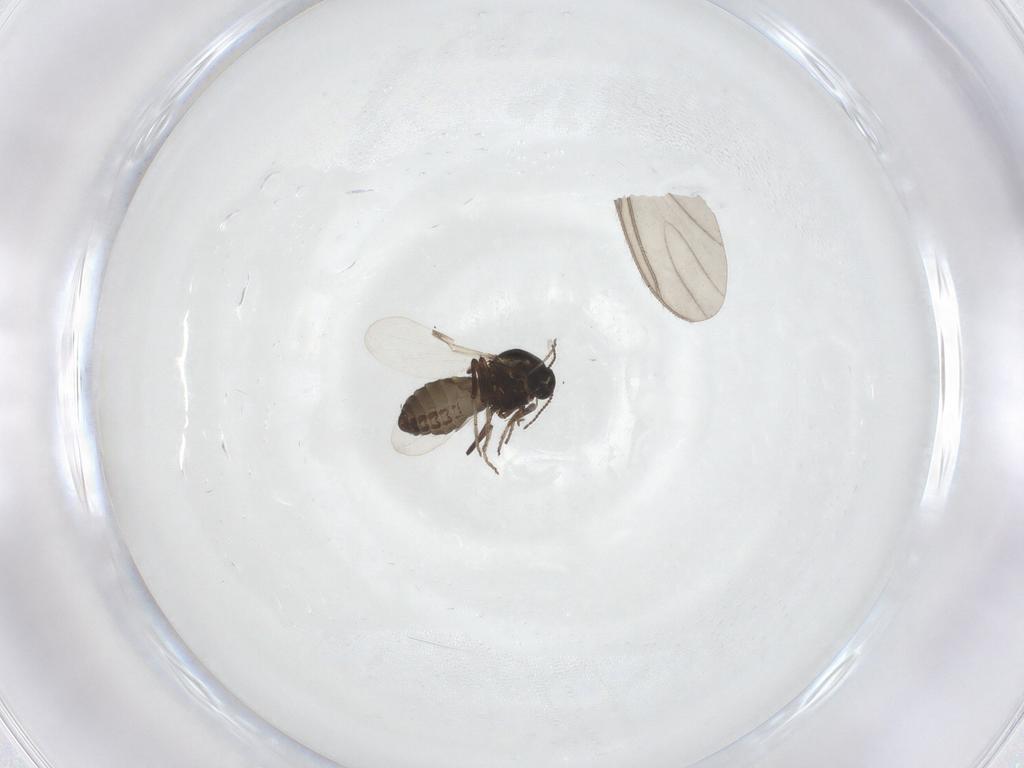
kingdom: Animalia
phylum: Arthropoda
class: Insecta
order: Diptera
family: Ceratopogonidae
